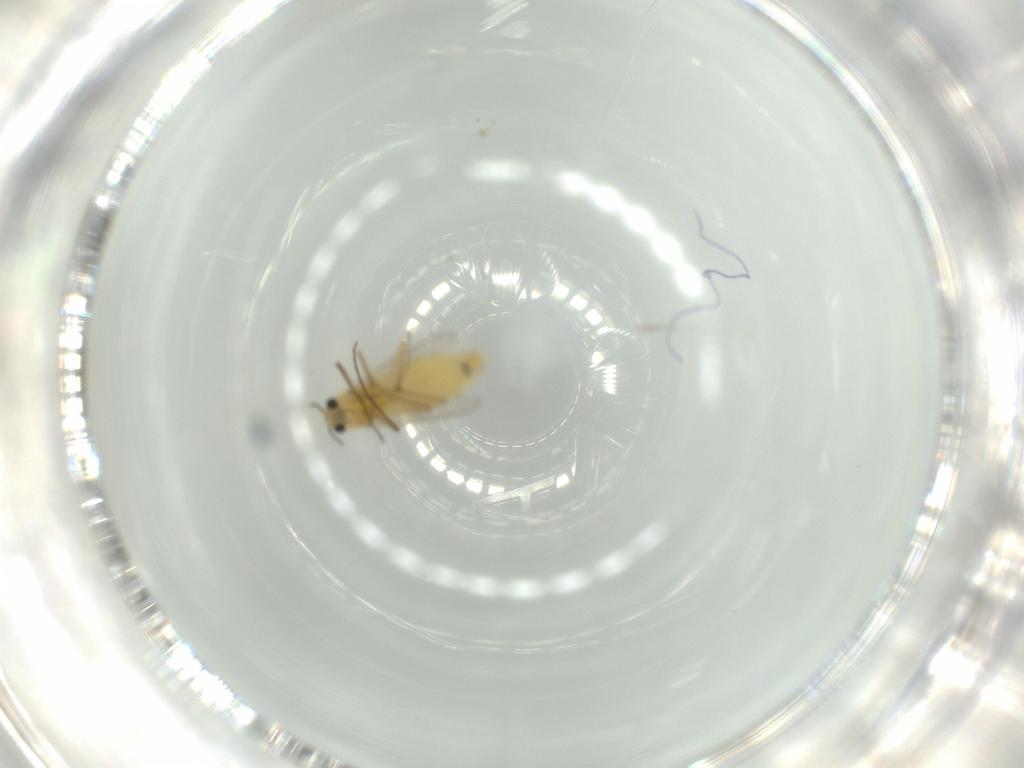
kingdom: Animalia
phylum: Arthropoda
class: Insecta
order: Diptera
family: Chironomidae
